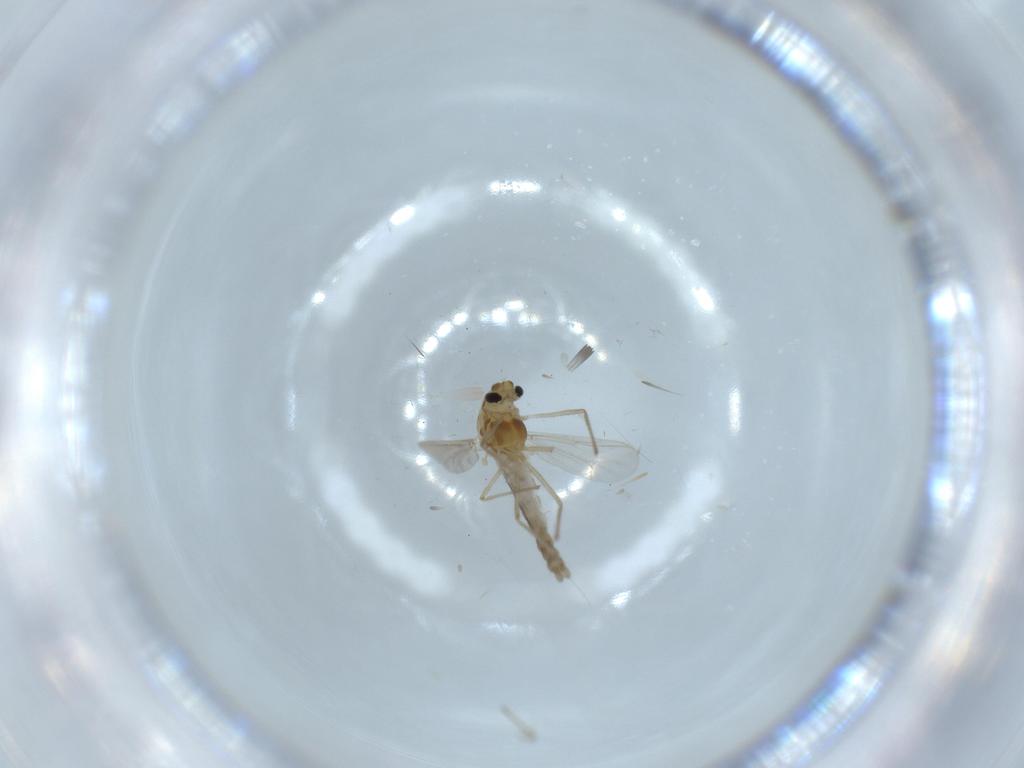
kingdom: Animalia
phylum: Arthropoda
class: Insecta
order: Diptera
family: Chironomidae
